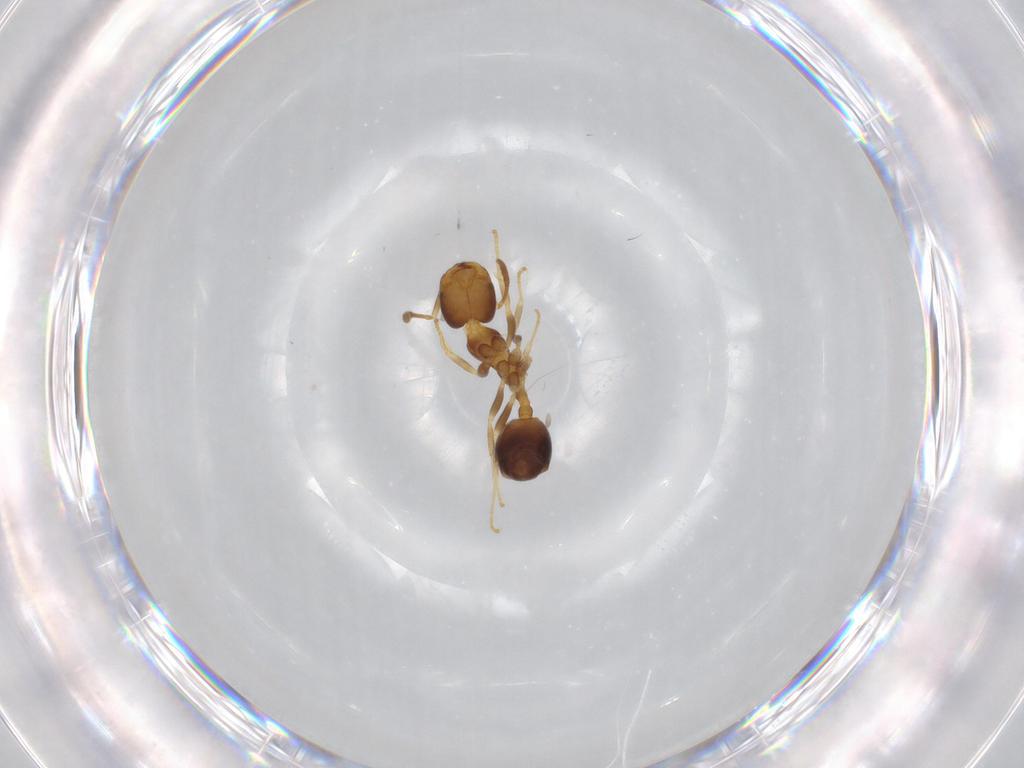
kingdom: Animalia
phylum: Arthropoda
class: Insecta
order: Hymenoptera
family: Formicidae
